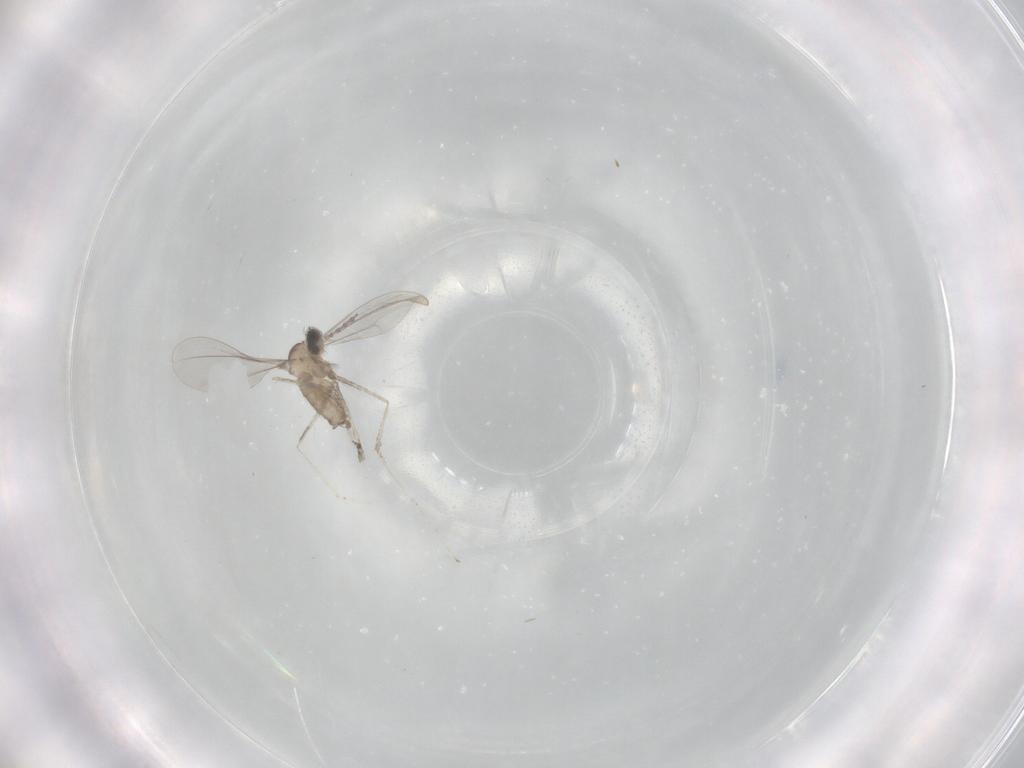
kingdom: Animalia
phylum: Arthropoda
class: Insecta
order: Diptera
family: Cecidomyiidae
